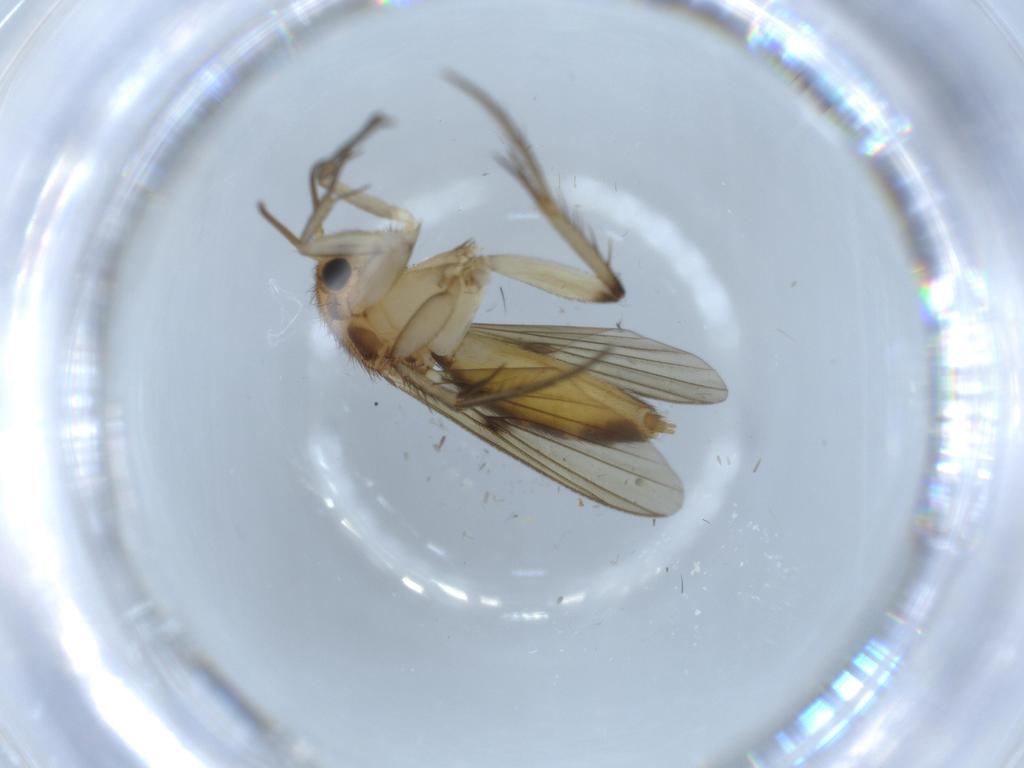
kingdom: Animalia
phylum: Arthropoda
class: Insecta
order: Diptera
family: Mycetophilidae
